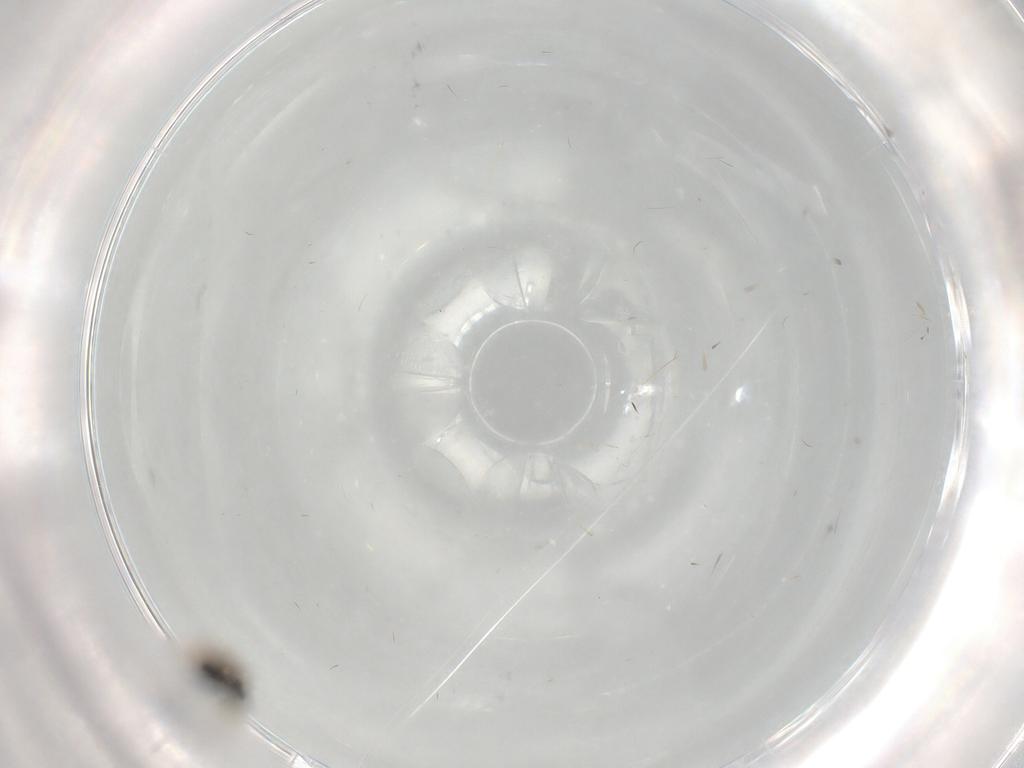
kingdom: Animalia
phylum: Arthropoda
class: Insecta
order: Hymenoptera
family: Platygastridae
